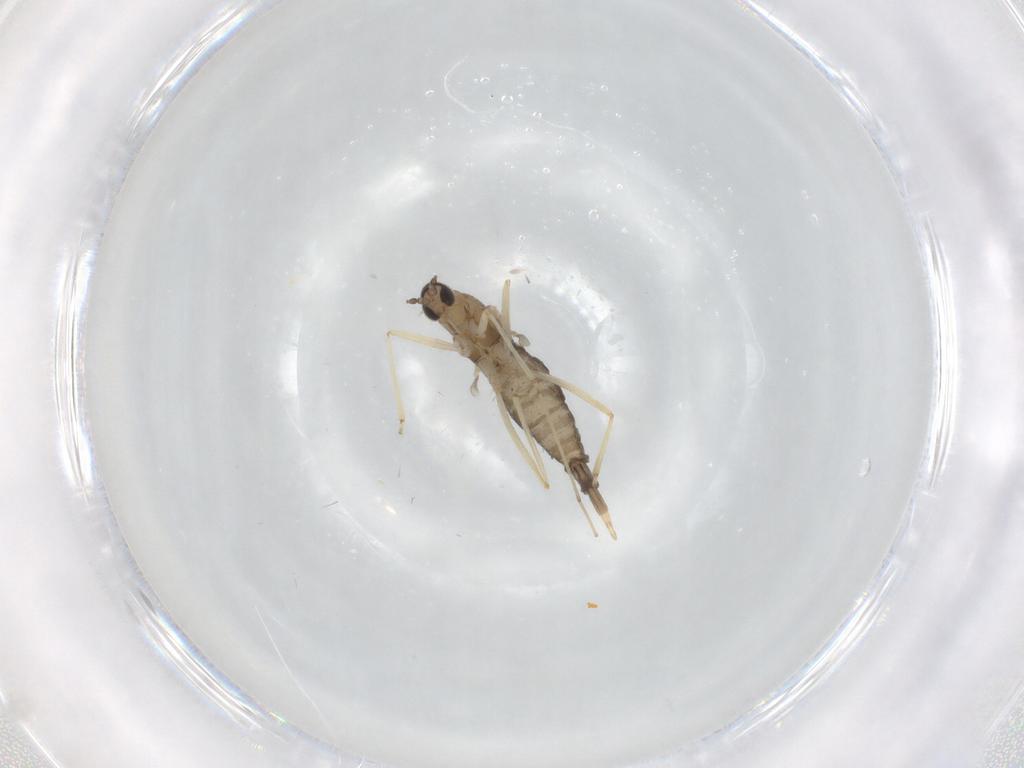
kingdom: Animalia
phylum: Arthropoda
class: Insecta
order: Diptera
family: Cecidomyiidae
